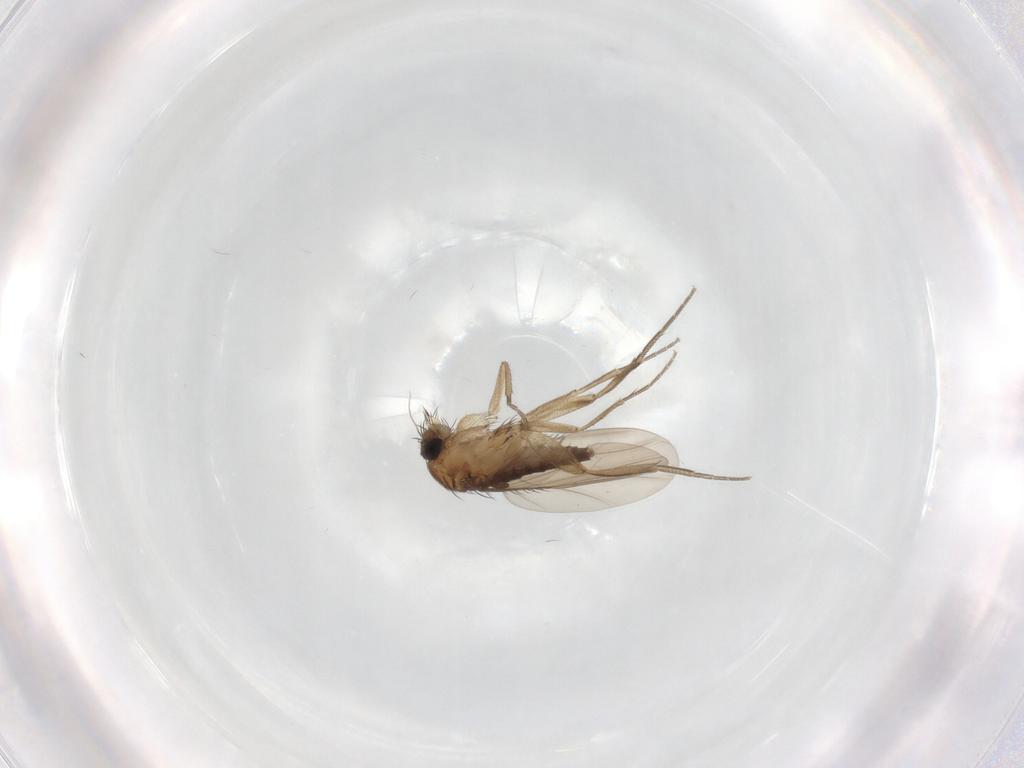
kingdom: Animalia
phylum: Arthropoda
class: Insecta
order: Diptera
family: Phoridae
